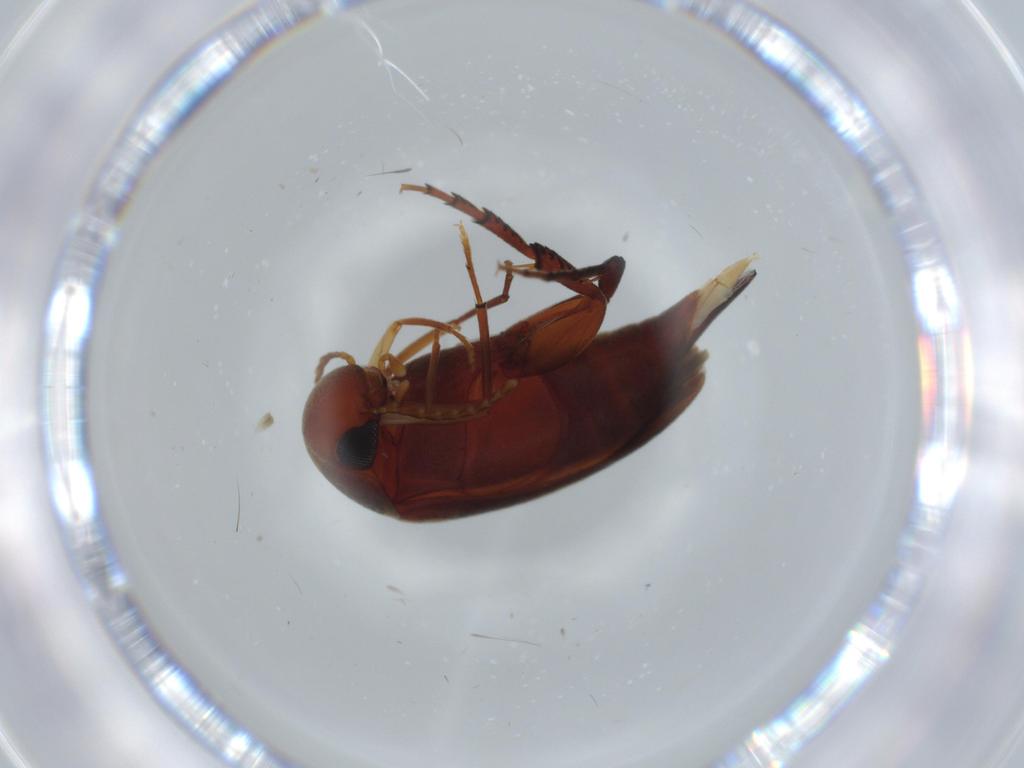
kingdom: Animalia
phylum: Arthropoda
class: Insecta
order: Coleoptera
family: Mordellidae
